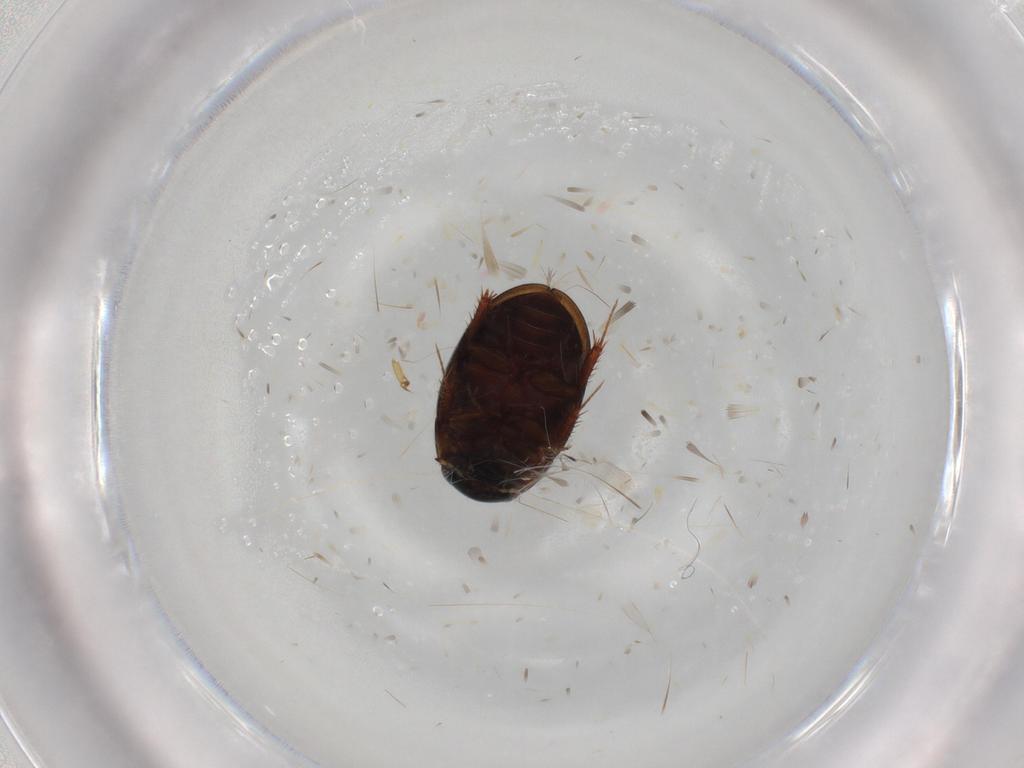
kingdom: Animalia
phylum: Arthropoda
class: Insecta
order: Coleoptera
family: Hydrophilidae
